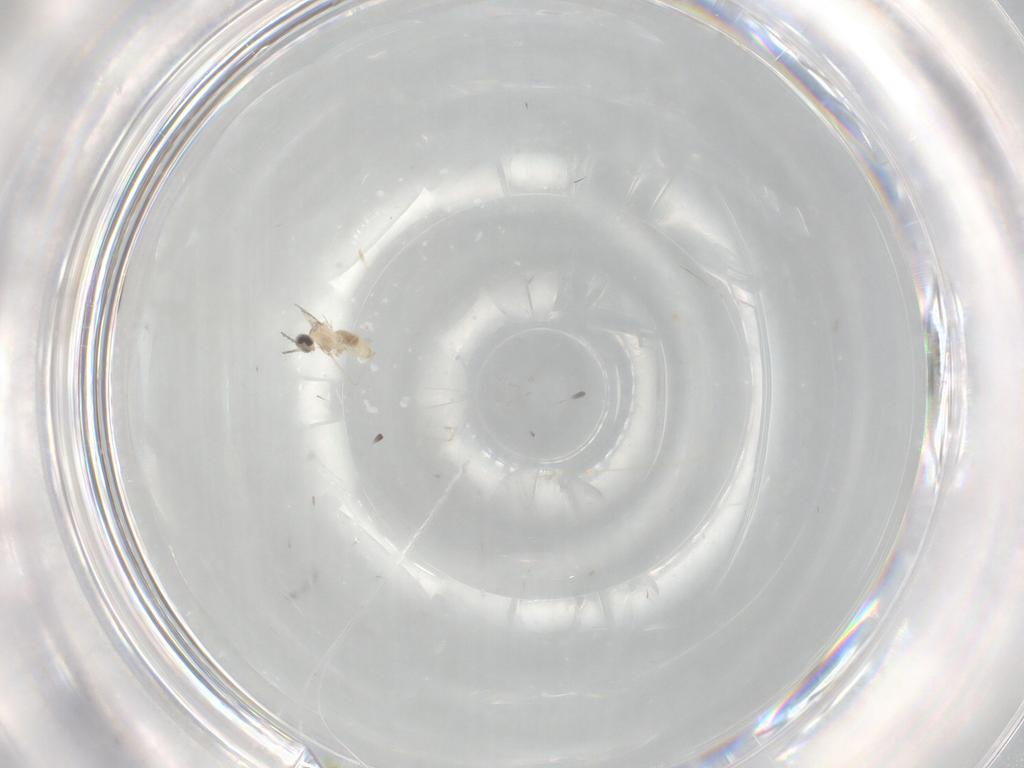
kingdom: Animalia
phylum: Arthropoda
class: Insecta
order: Diptera
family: Cecidomyiidae
